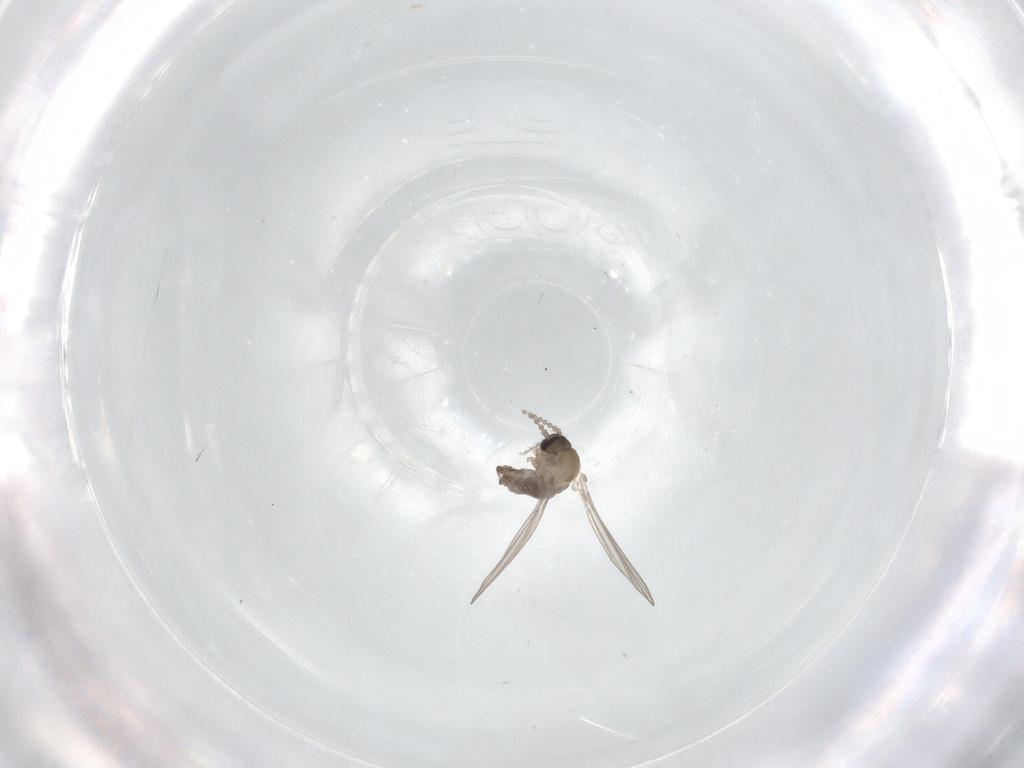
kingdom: Animalia
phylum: Arthropoda
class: Insecta
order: Diptera
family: Psychodidae
